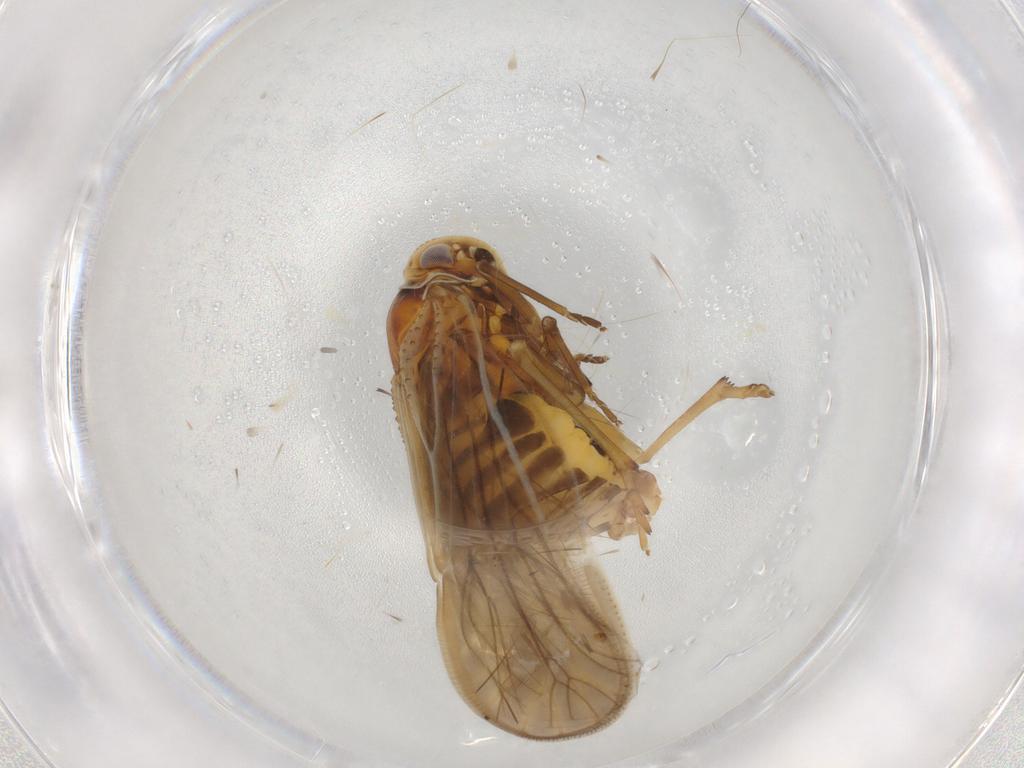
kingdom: Animalia
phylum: Arthropoda
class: Insecta
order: Hemiptera
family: Meenoplidae
